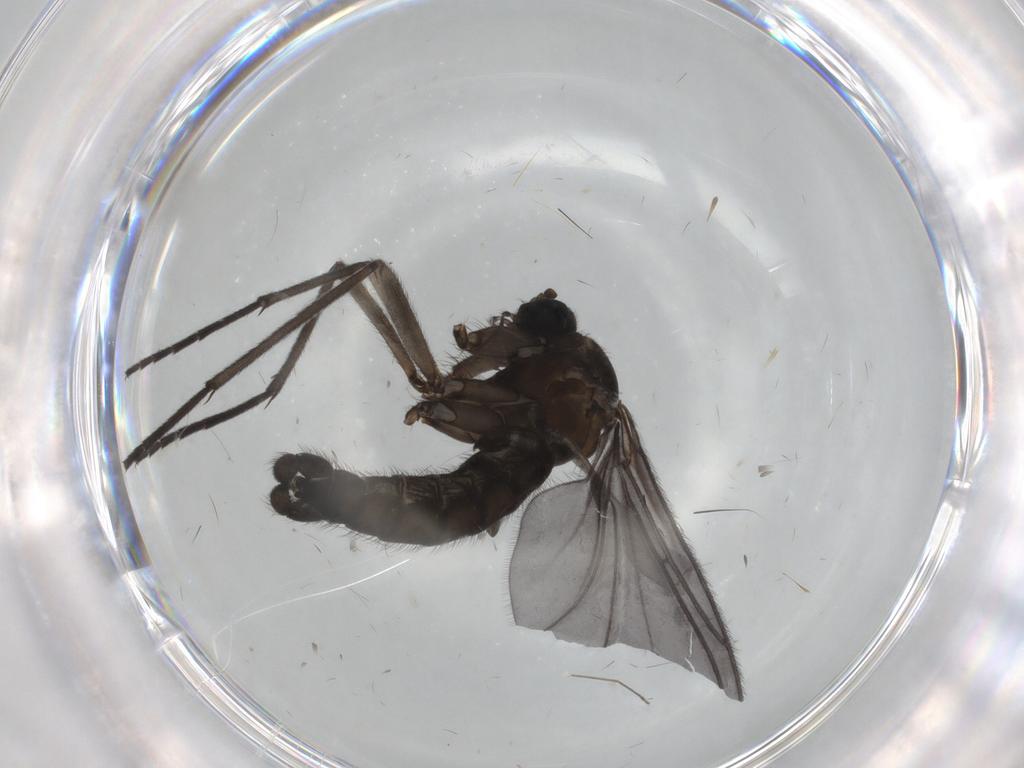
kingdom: Animalia
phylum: Arthropoda
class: Insecta
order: Diptera
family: Sciaridae
